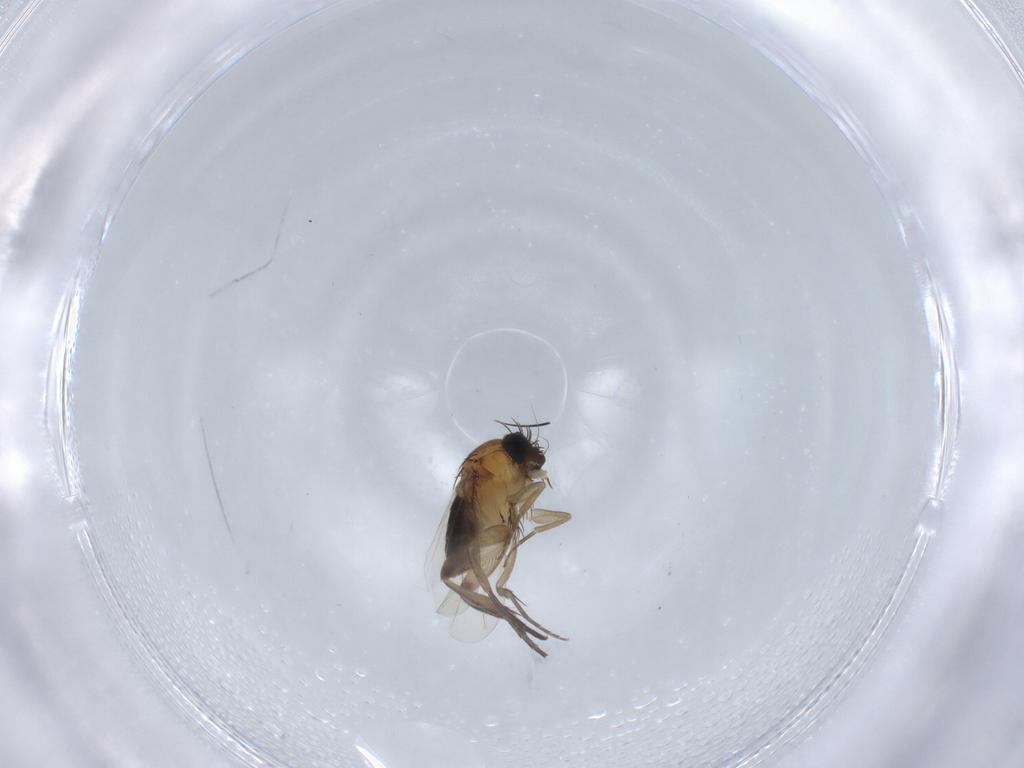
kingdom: Animalia
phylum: Arthropoda
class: Insecta
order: Diptera
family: Phoridae
